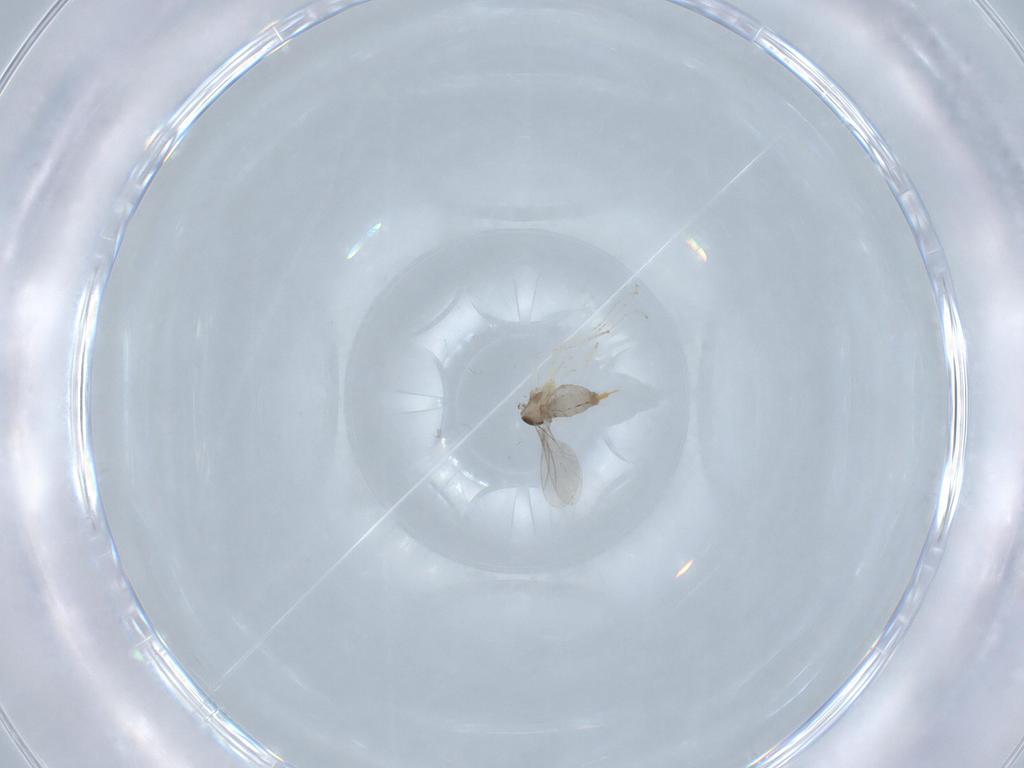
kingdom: Animalia
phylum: Arthropoda
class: Insecta
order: Diptera
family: Cecidomyiidae
